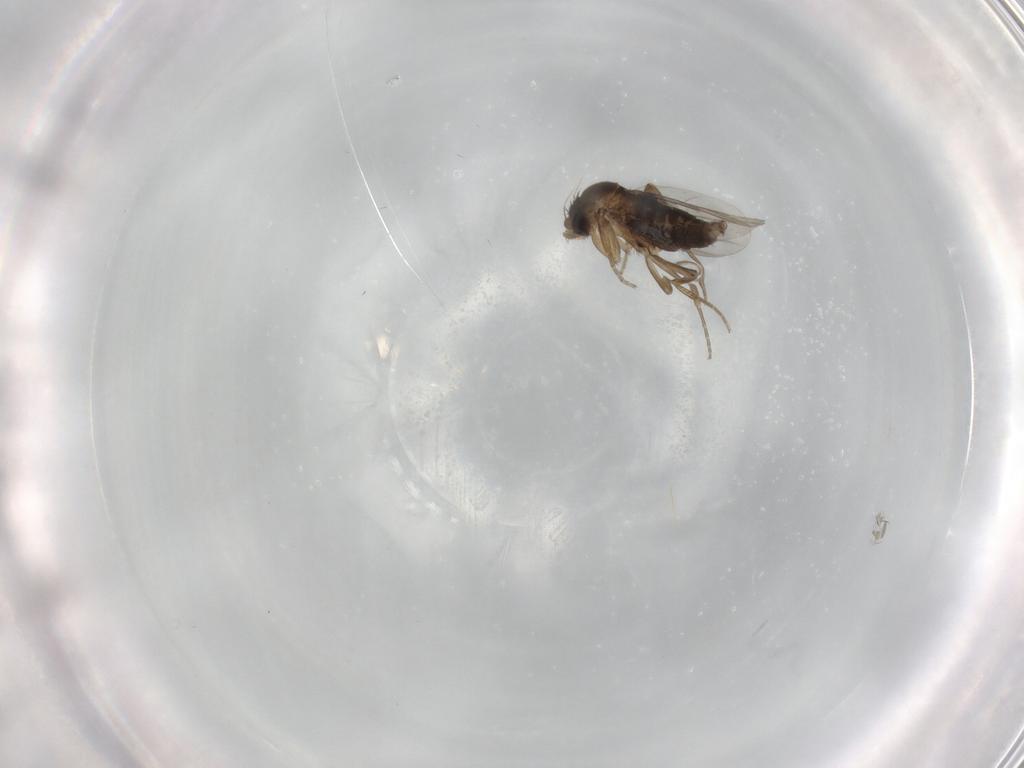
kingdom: Animalia
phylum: Arthropoda
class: Insecta
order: Diptera
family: Phoridae
